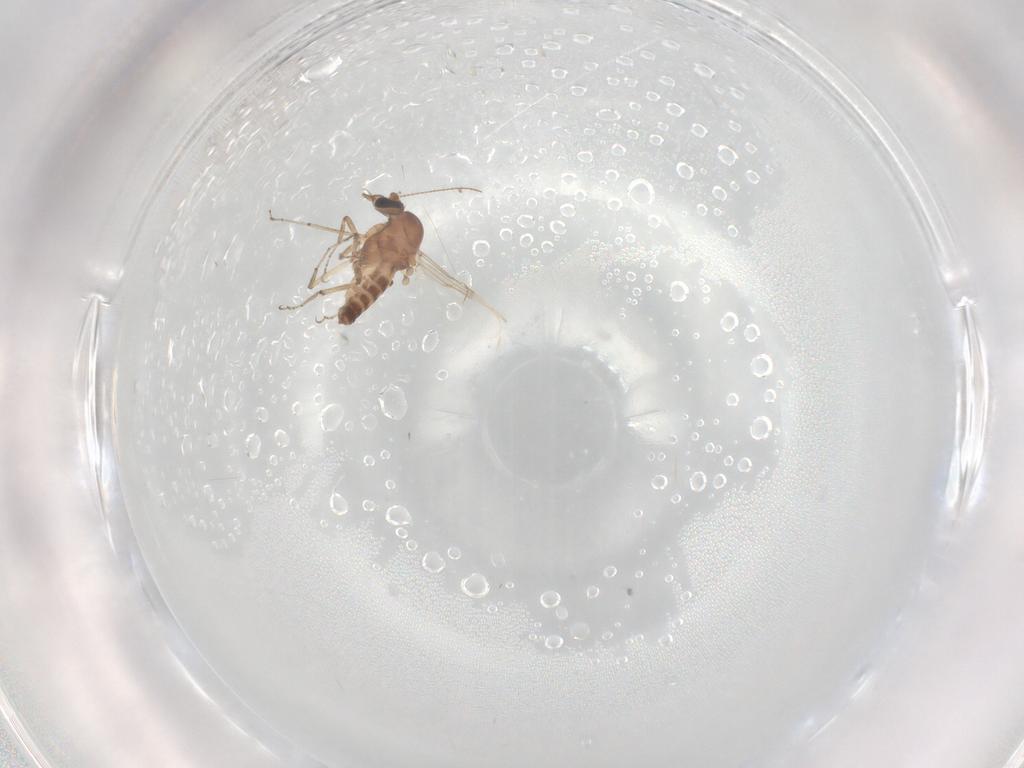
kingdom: Animalia
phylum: Arthropoda
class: Insecta
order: Diptera
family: Ceratopogonidae
